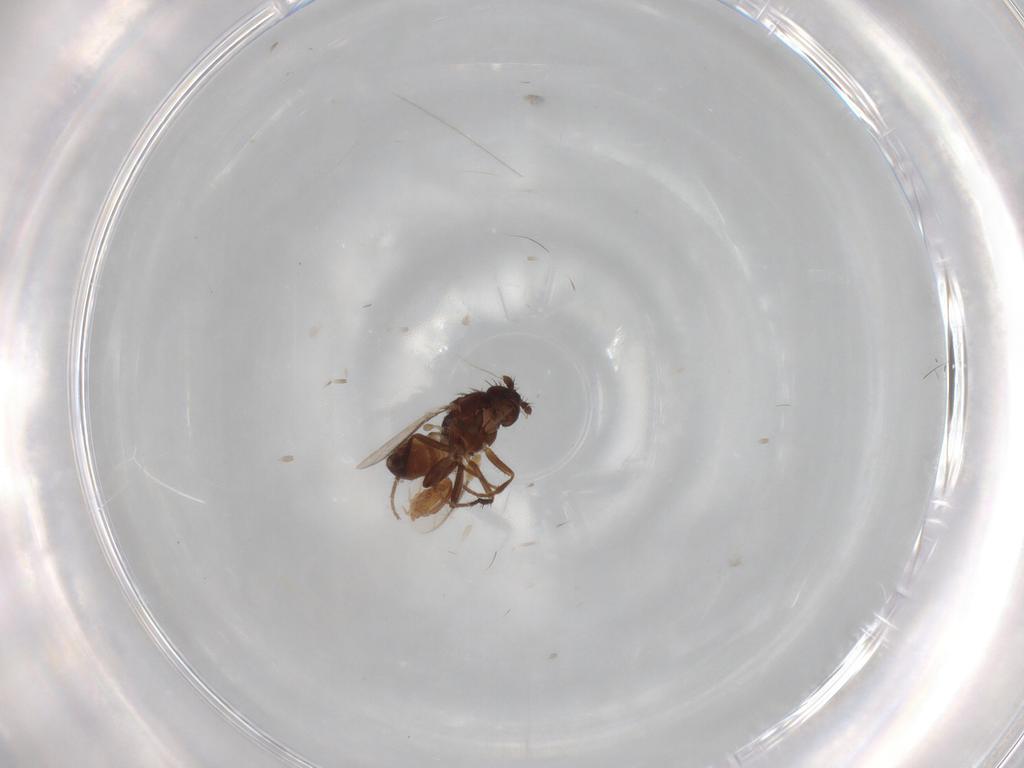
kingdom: Animalia
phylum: Arthropoda
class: Insecta
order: Diptera
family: Sphaeroceridae
